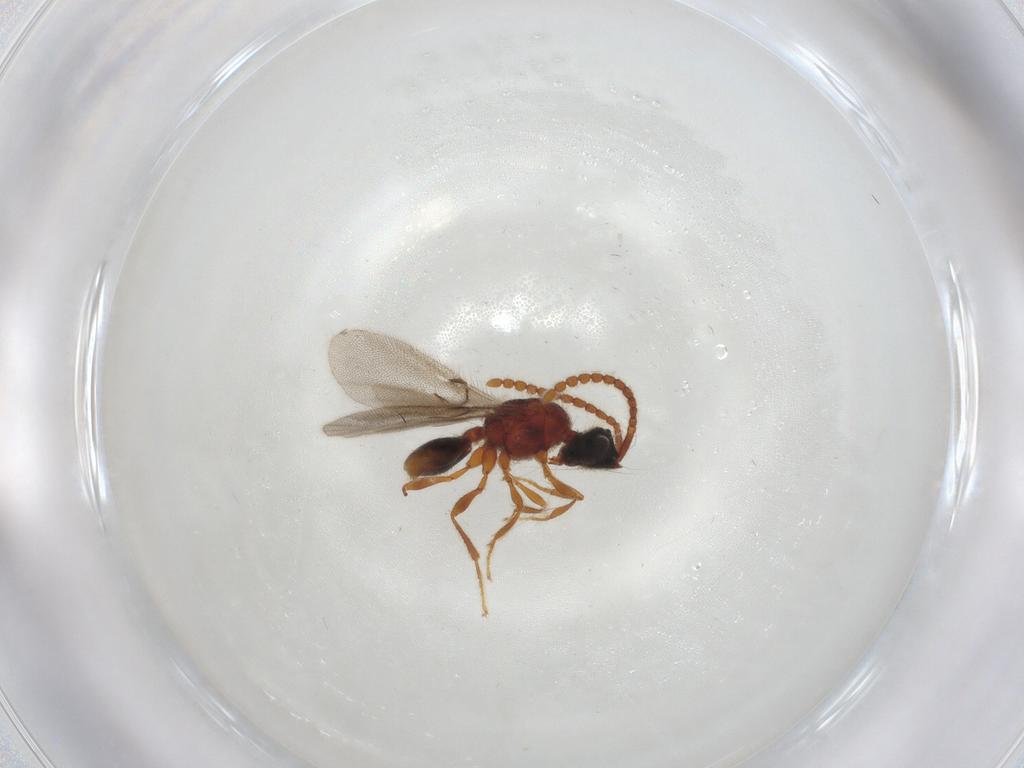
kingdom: Animalia
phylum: Arthropoda
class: Insecta
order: Hymenoptera
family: Diapriidae
